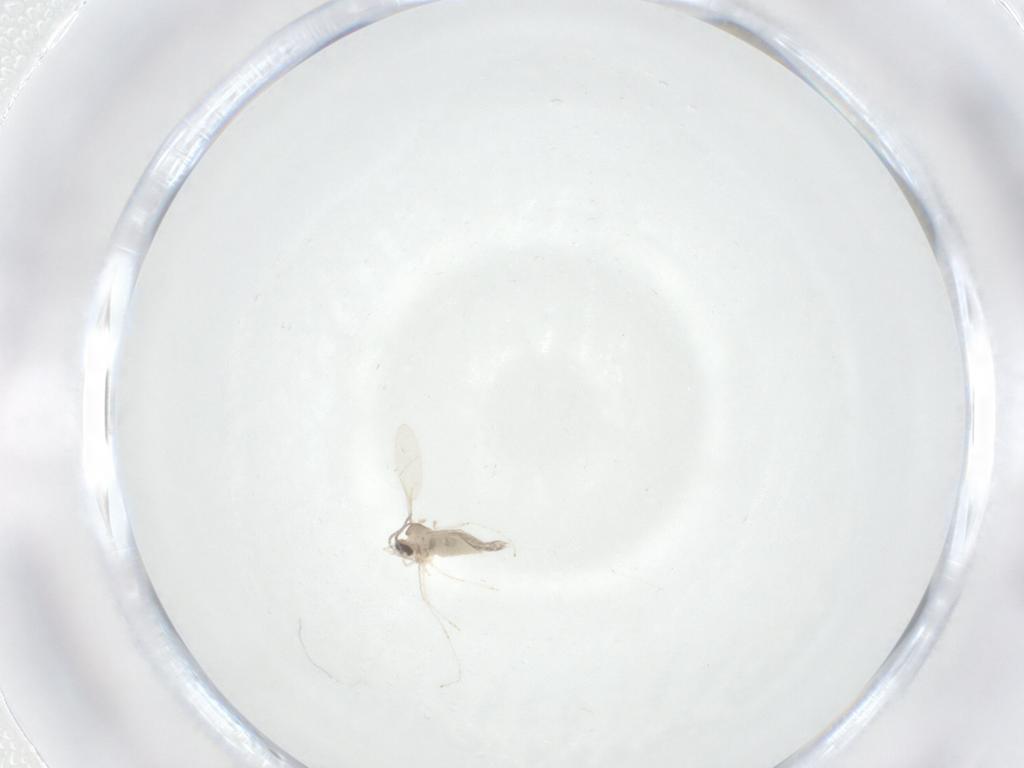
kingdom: Animalia
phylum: Arthropoda
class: Insecta
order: Diptera
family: Cecidomyiidae
